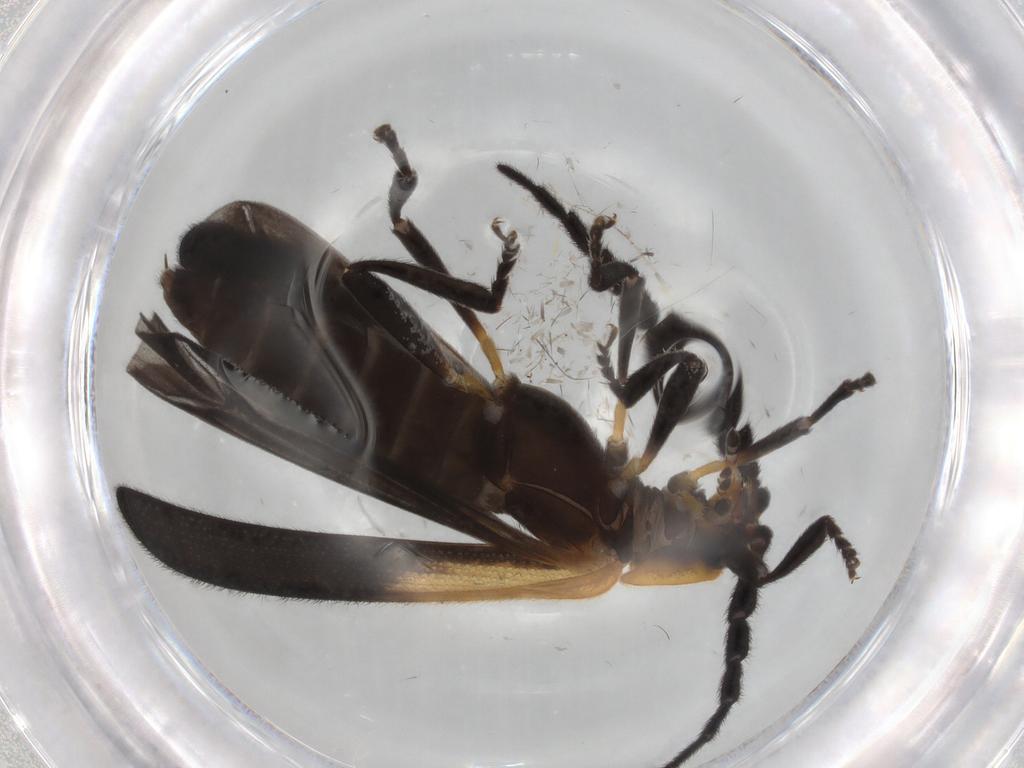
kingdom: Animalia
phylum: Arthropoda
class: Insecta
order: Coleoptera
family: Lycidae
